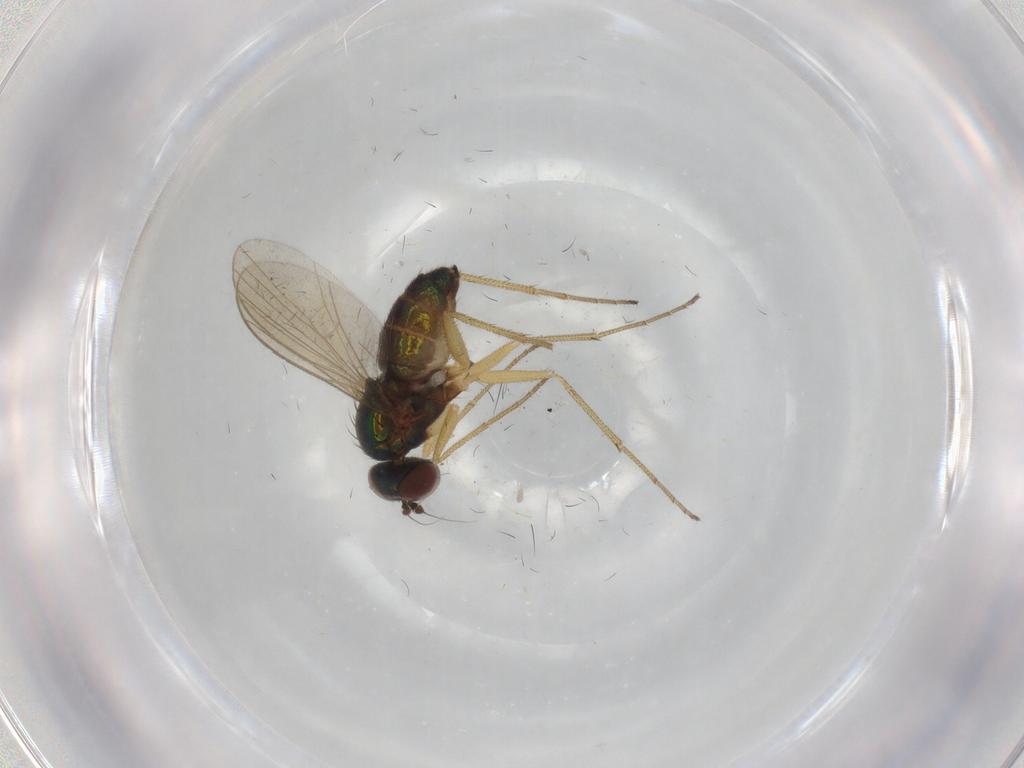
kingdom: Animalia
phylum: Arthropoda
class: Insecta
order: Diptera
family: Dolichopodidae
